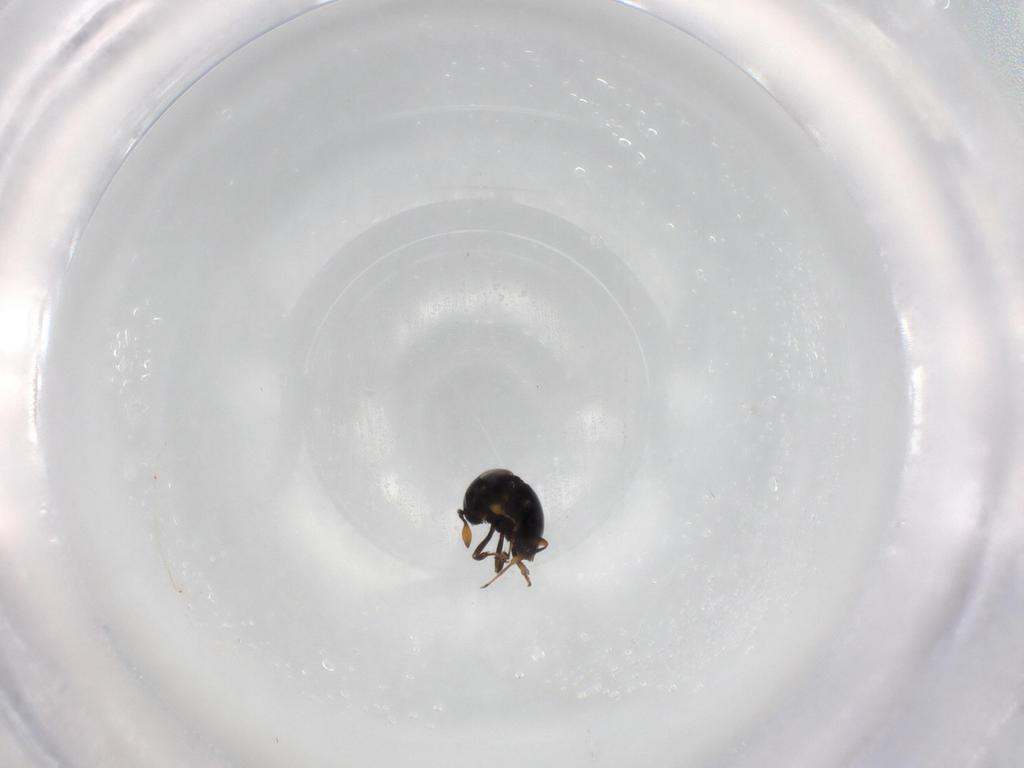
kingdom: Animalia
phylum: Arthropoda
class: Insecta
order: Hymenoptera
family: Scelionidae
